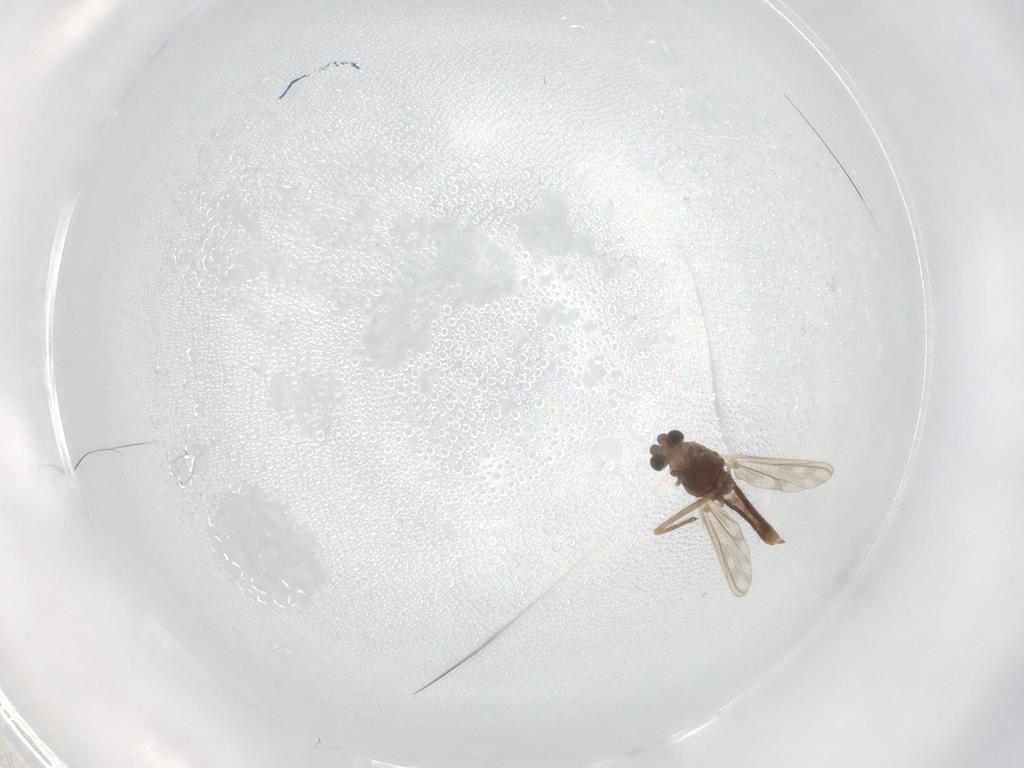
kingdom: Animalia
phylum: Arthropoda
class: Insecta
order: Diptera
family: Chironomidae
